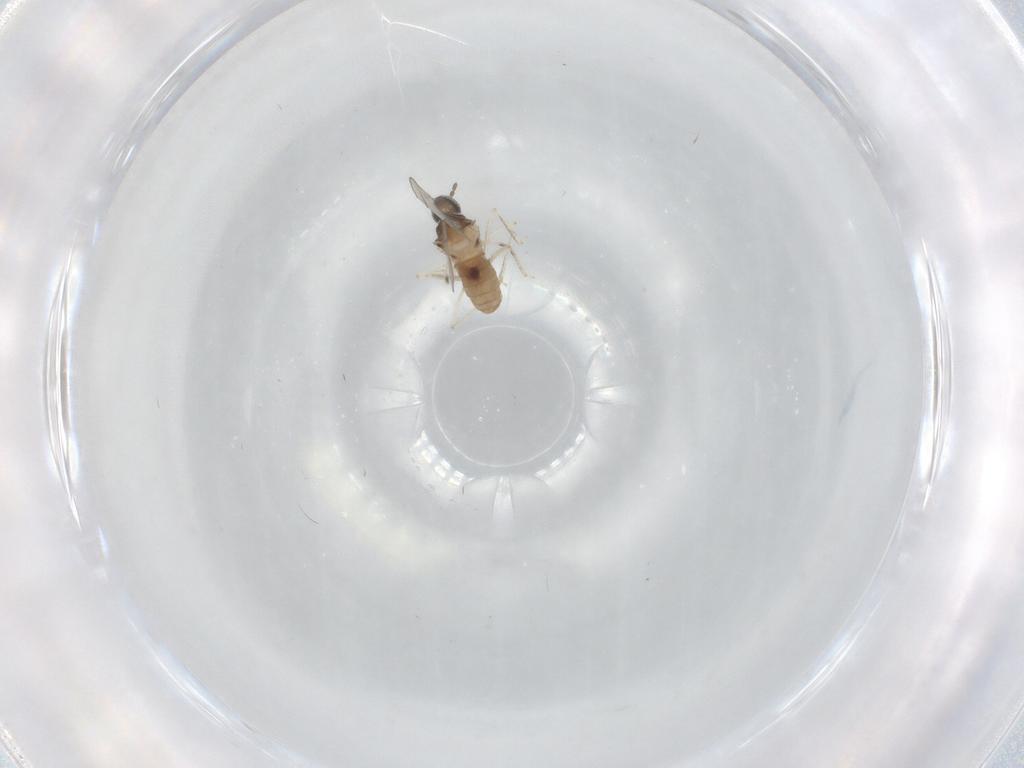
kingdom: Animalia
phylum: Arthropoda
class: Insecta
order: Diptera
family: Cecidomyiidae
